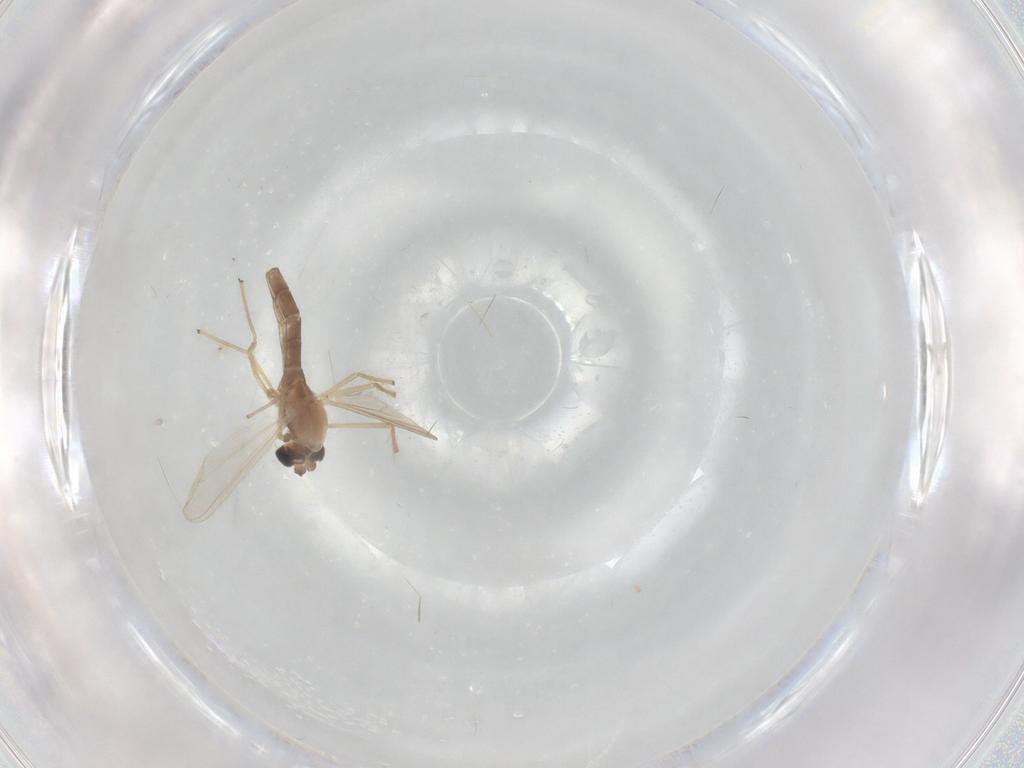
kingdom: Animalia
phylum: Arthropoda
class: Insecta
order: Diptera
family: Chironomidae
